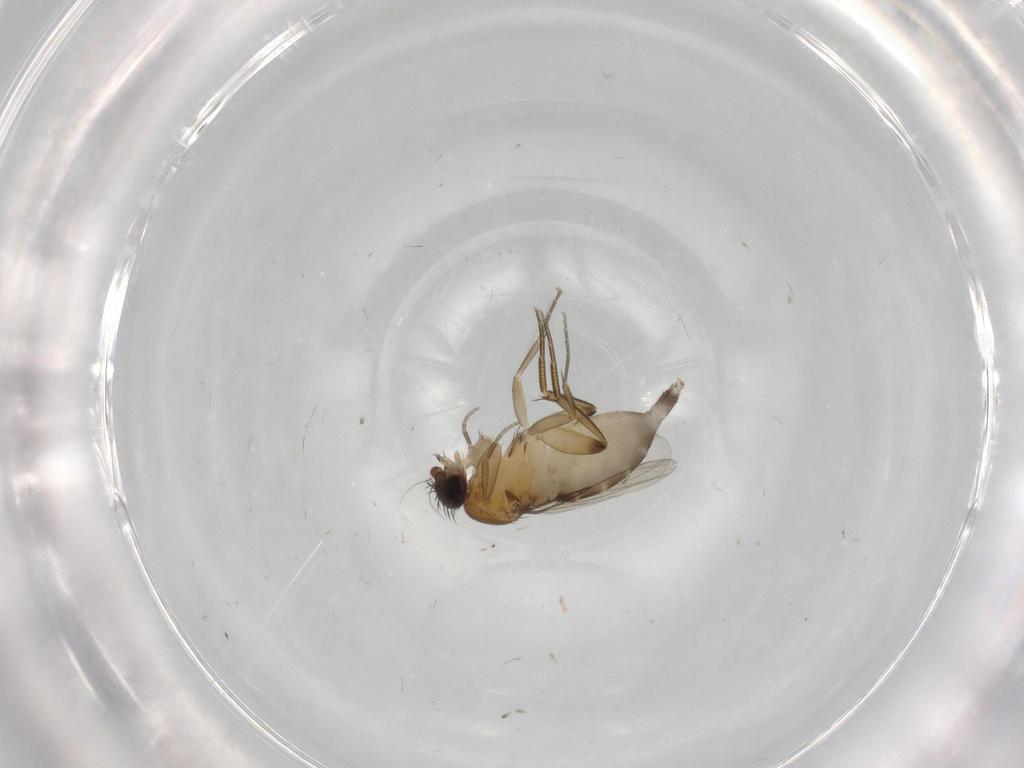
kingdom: Animalia
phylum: Arthropoda
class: Insecta
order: Diptera
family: Phoridae
